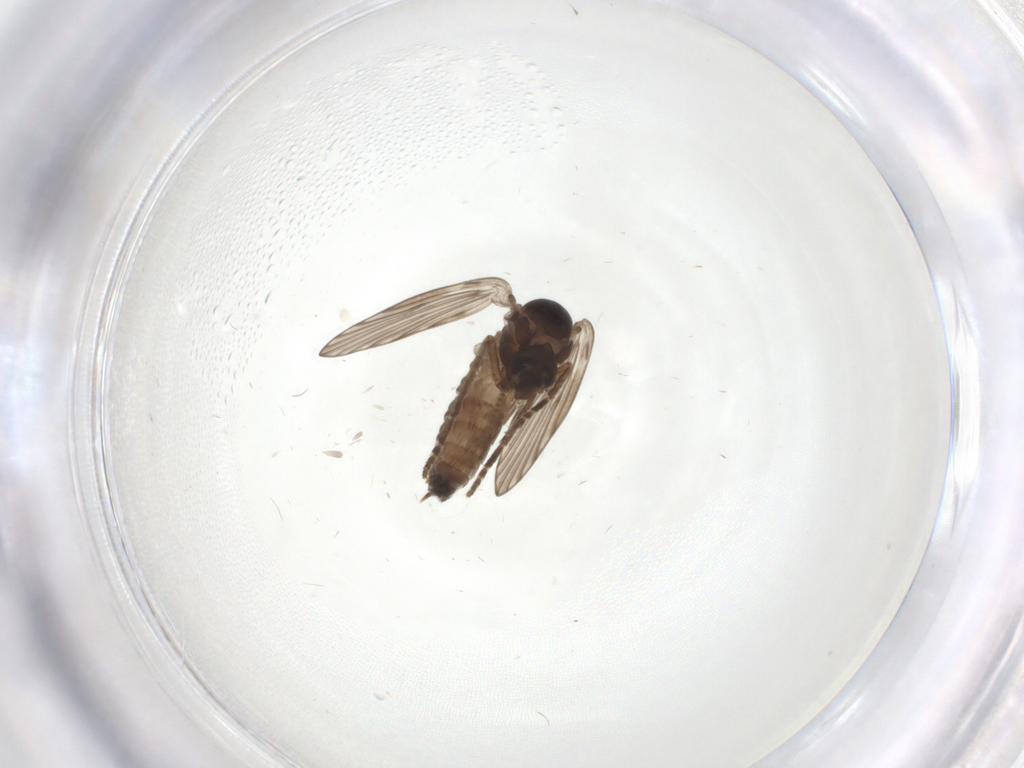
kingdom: Animalia
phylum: Arthropoda
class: Insecta
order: Diptera
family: Psychodidae
